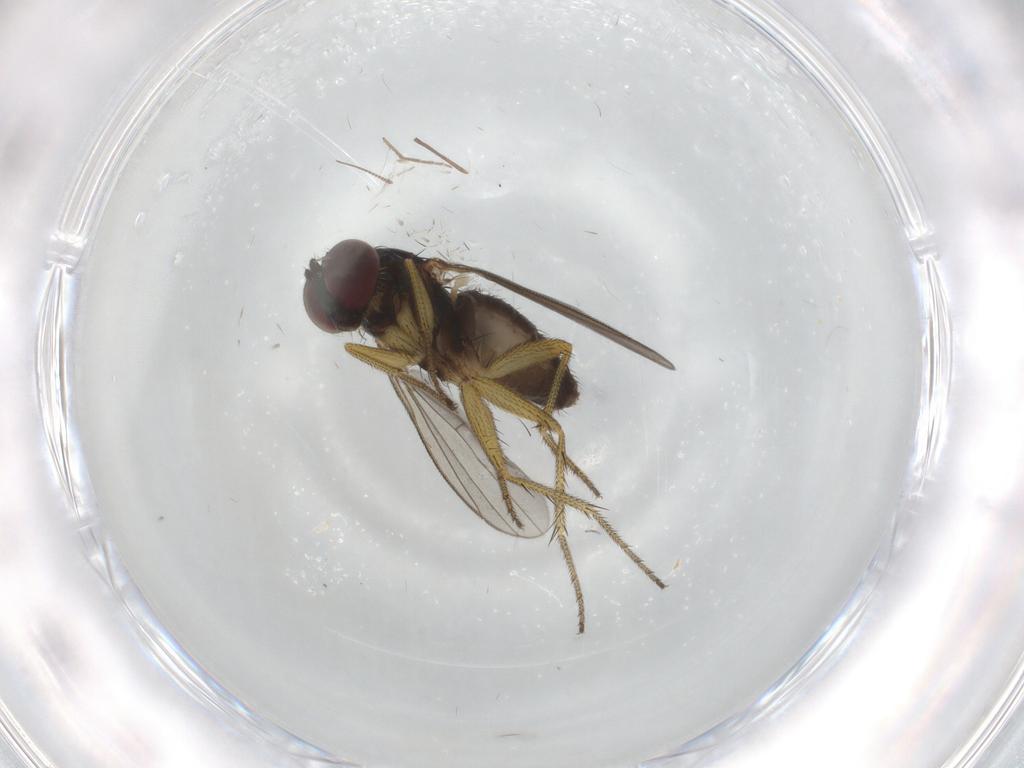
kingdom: Animalia
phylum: Arthropoda
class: Insecta
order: Diptera
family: Dolichopodidae
